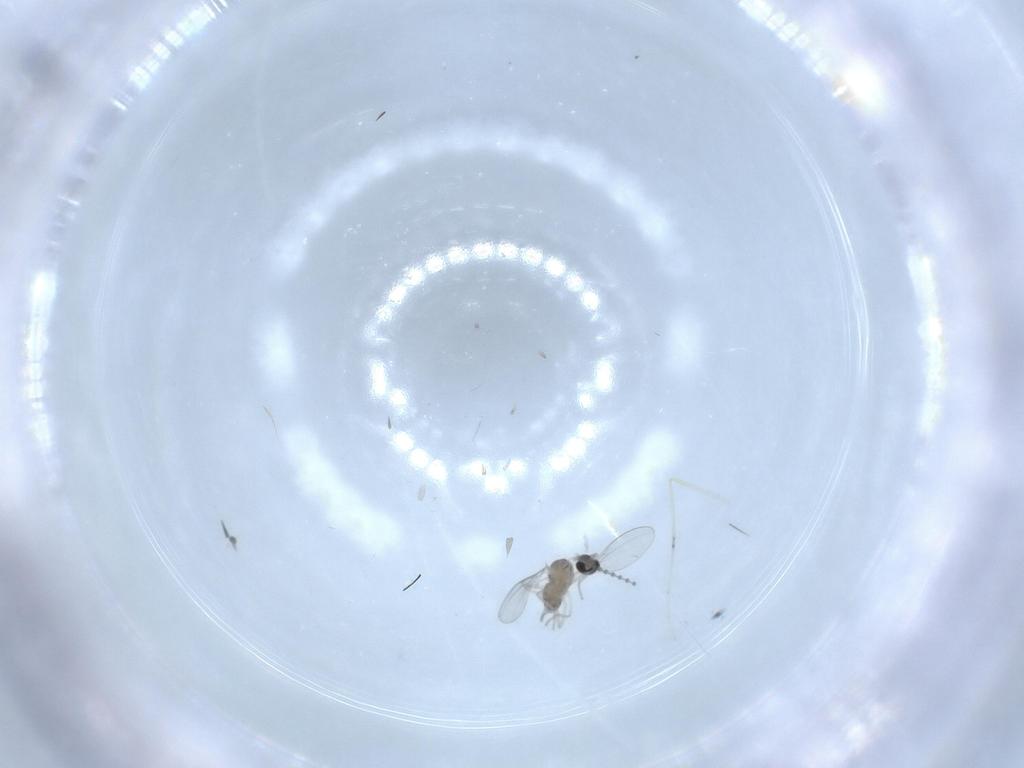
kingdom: Animalia
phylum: Arthropoda
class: Insecta
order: Diptera
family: Cecidomyiidae
